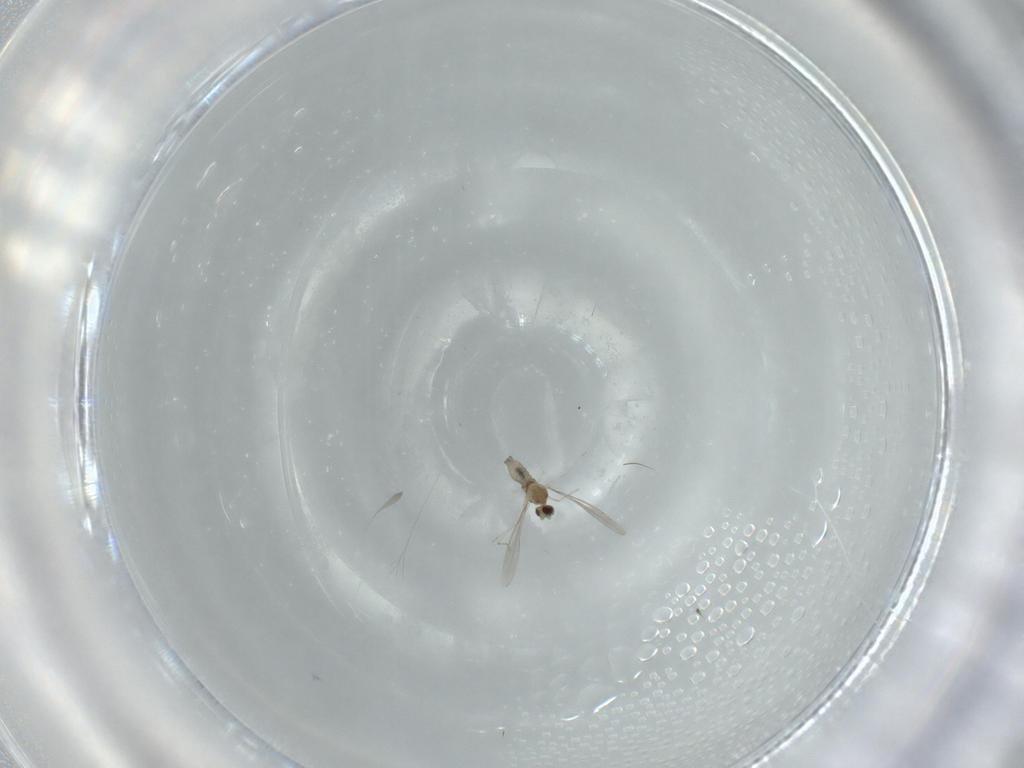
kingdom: Animalia
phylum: Arthropoda
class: Insecta
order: Diptera
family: Cecidomyiidae
